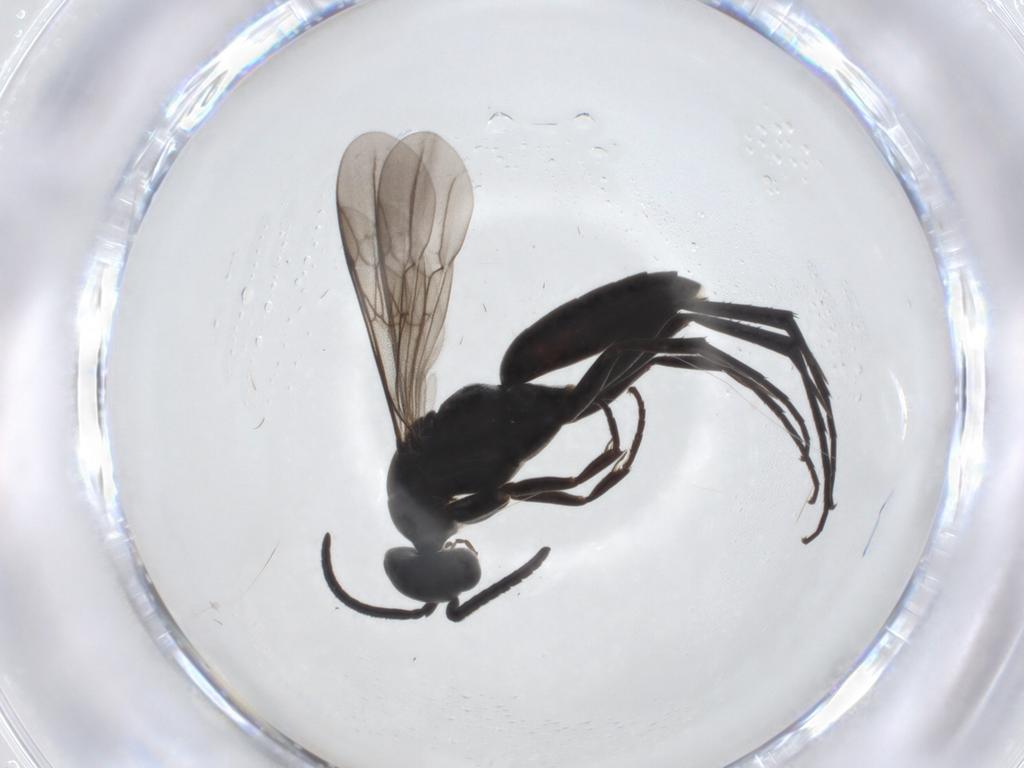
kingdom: Animalia
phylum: Arthropoda
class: Insecta
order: Hymenoptera
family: Pompilidae
